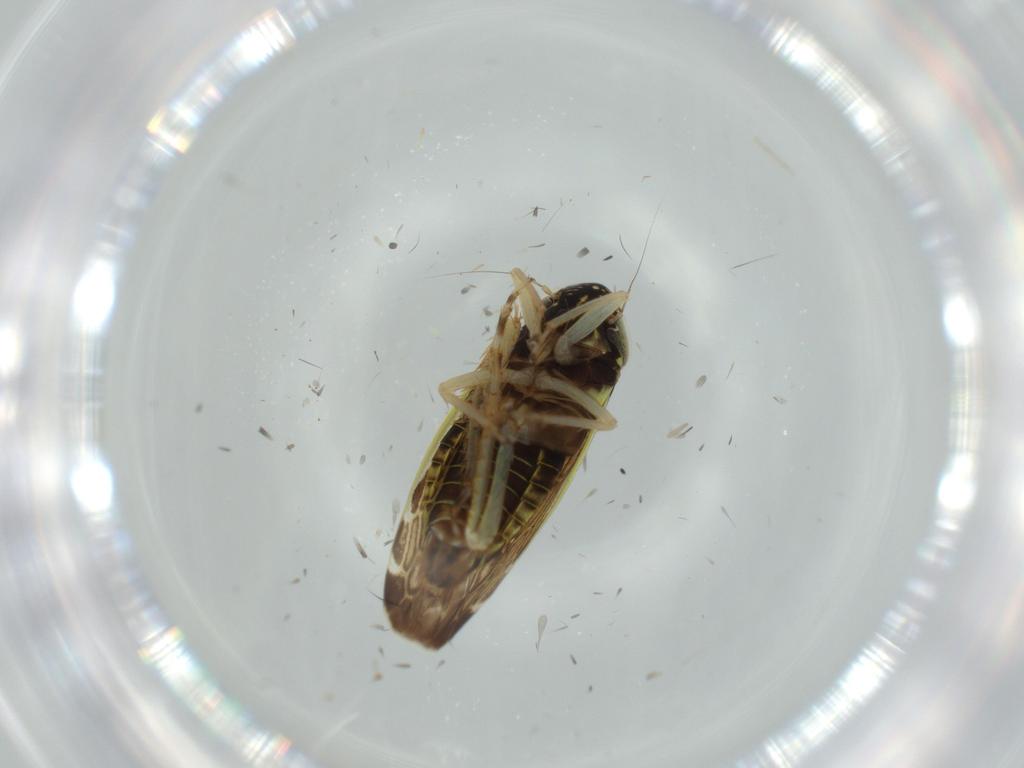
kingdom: Animalia
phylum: Arthropoda
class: Insecta
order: Hemiptera
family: Cicadellidae
